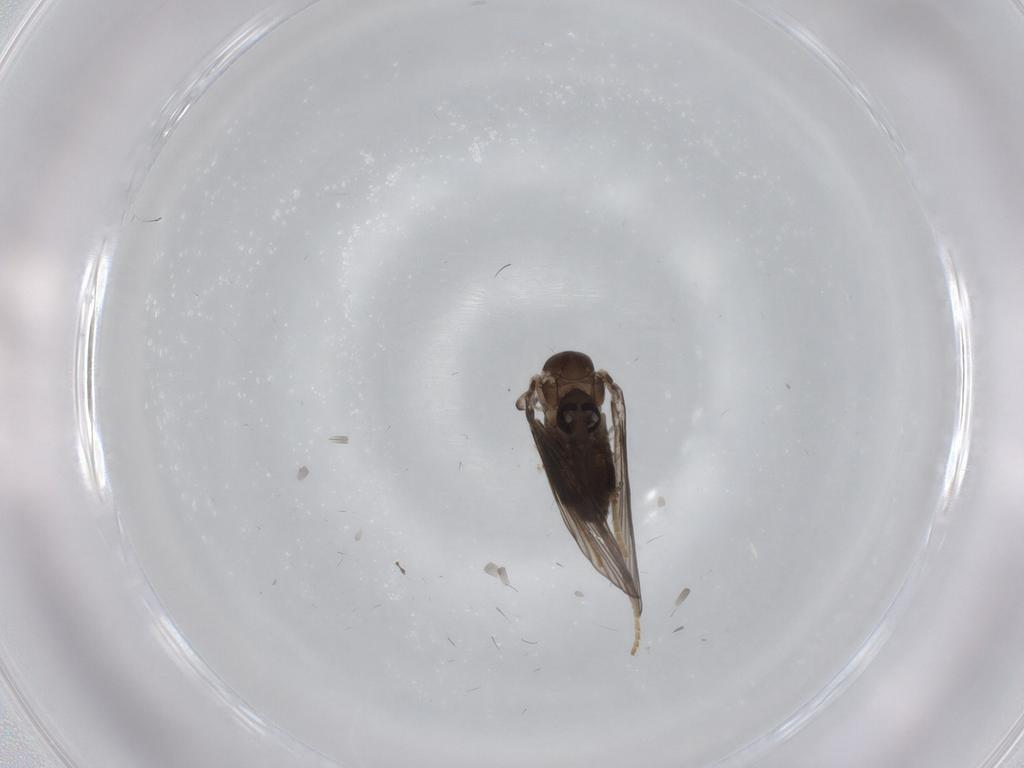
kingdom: Animalia
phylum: Arthropoda
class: Insecta
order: Diptera
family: Psychodidae
